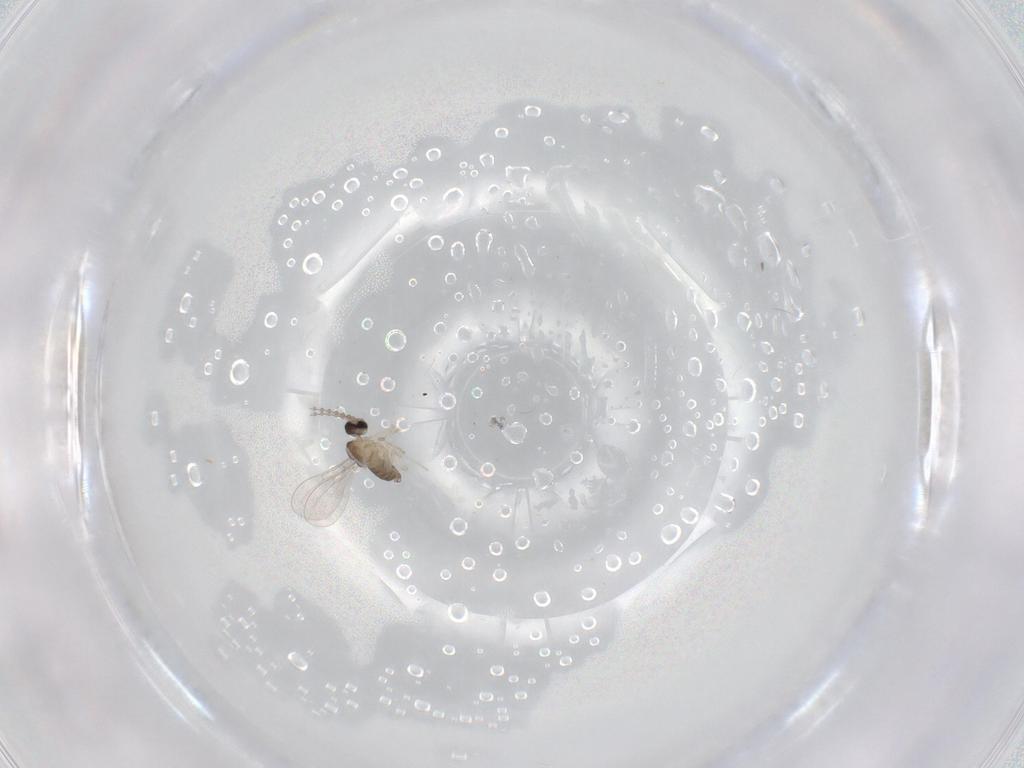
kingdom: Animalia
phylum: Arthropoda
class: Insecta
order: Diptera
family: Cecidomyiidae
